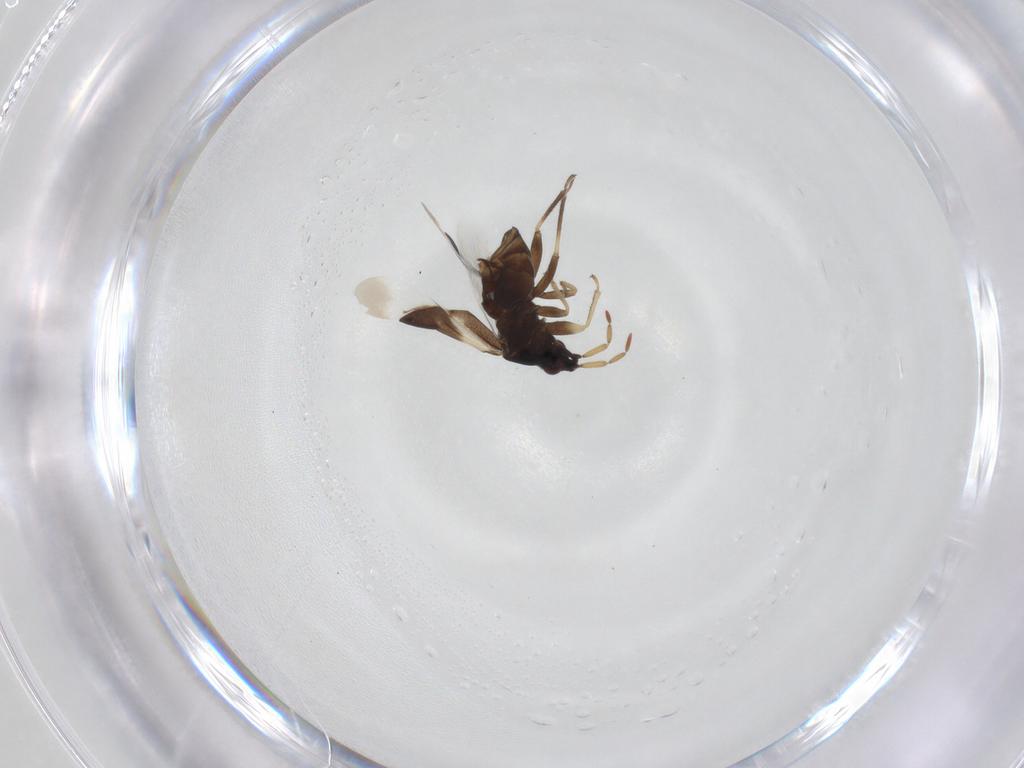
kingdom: Animalia
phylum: Arthropoda
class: Insecta
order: Hemiptera
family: Anthocoridae
